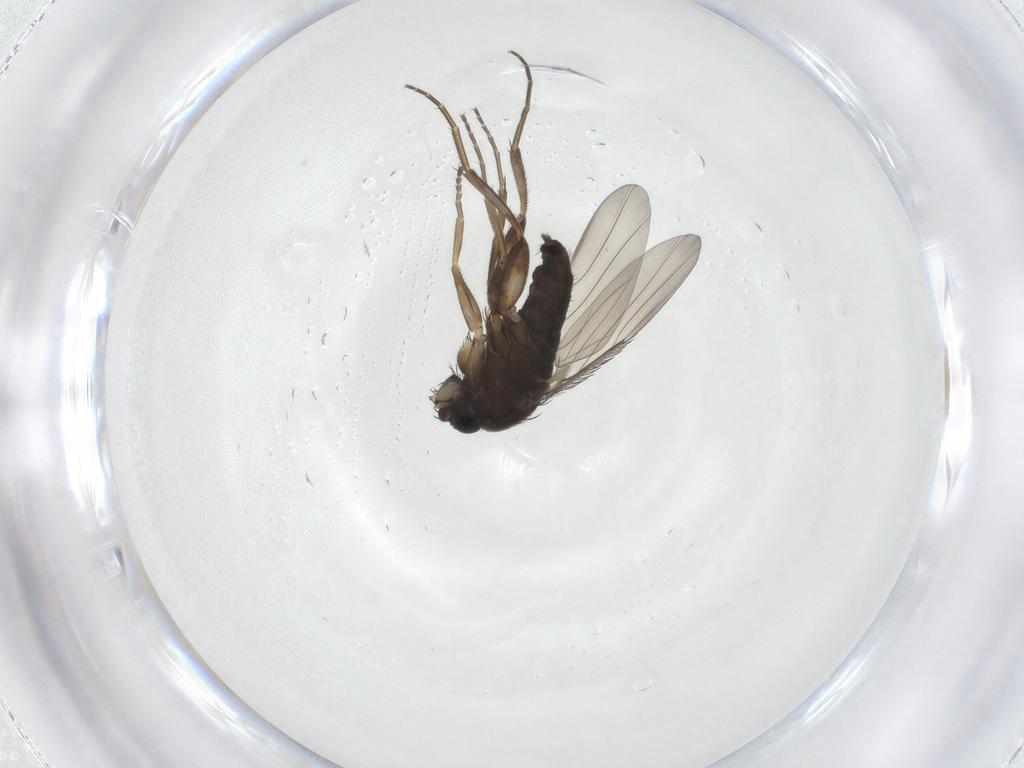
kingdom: Animalia
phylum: Arthropoda
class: Insecta
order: Diptera
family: Phoridae
